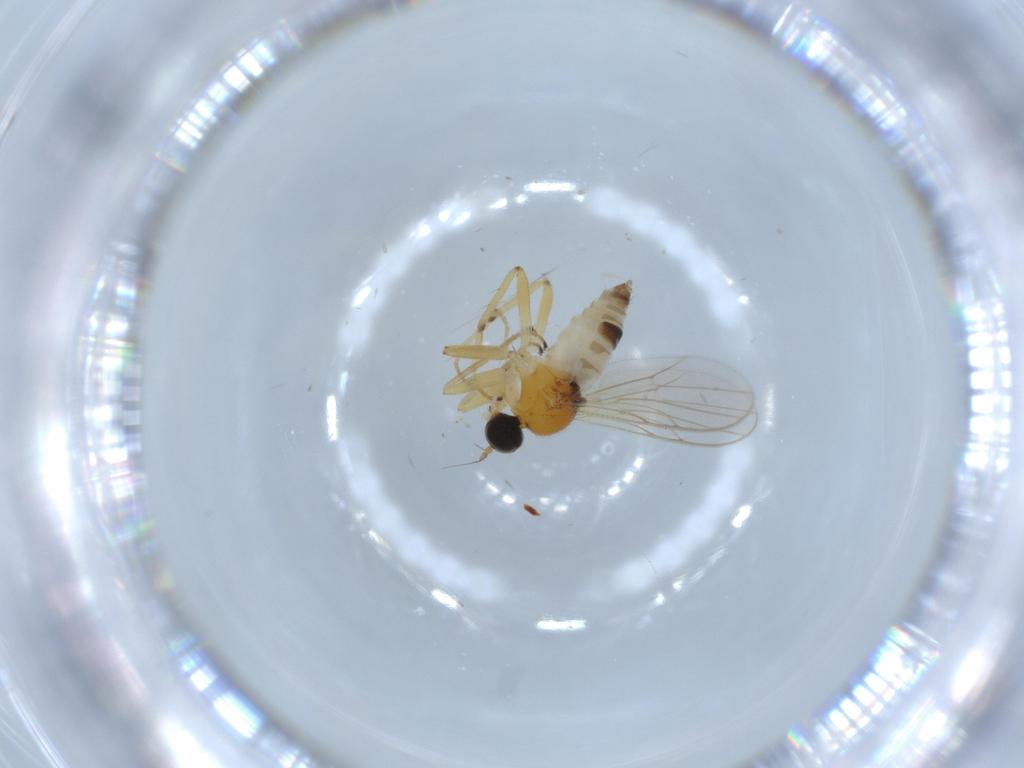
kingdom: Animalia
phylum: Arthropoda
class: Insecta
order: Diptera
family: Hybotidae
